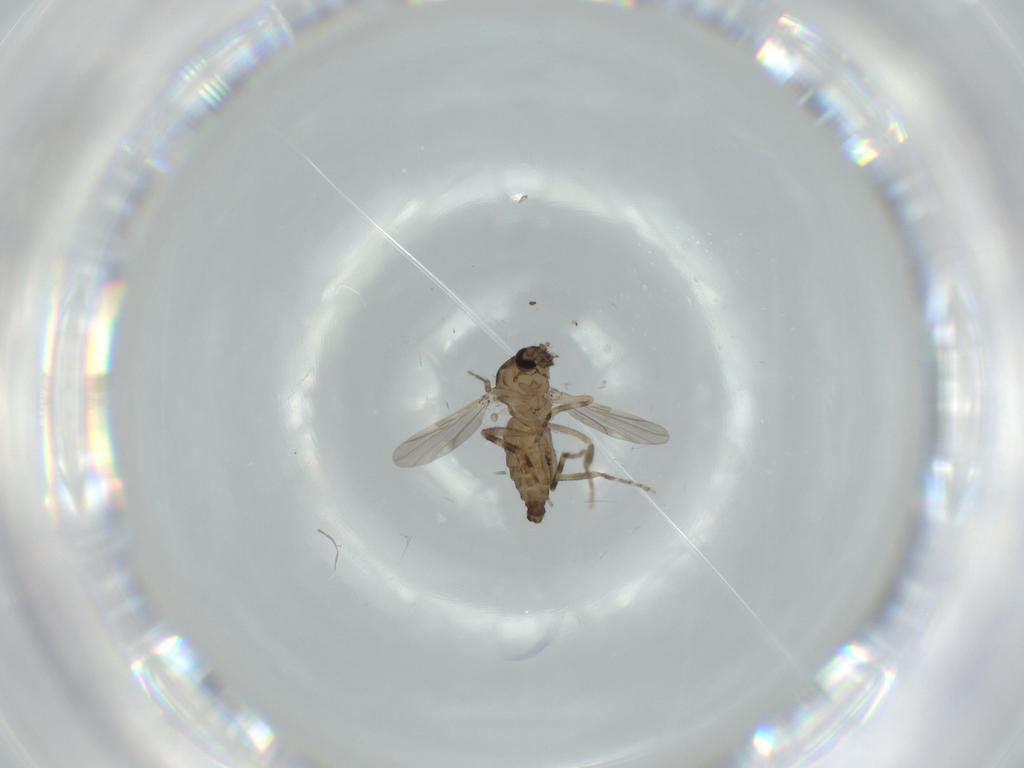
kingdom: Animalia
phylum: Arthropoda
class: Insecta
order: Diptera
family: Ceratopogonidae
